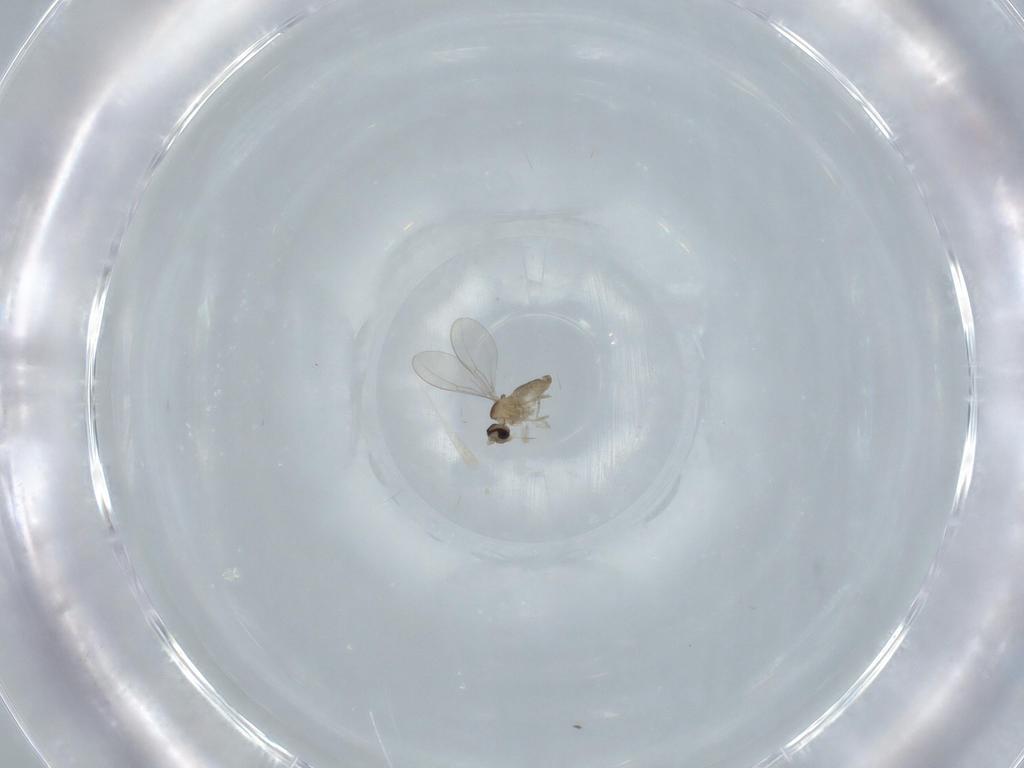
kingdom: Animalia
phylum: Arthropoda
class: Insecta
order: Diptera
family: Cecidomyiidae
